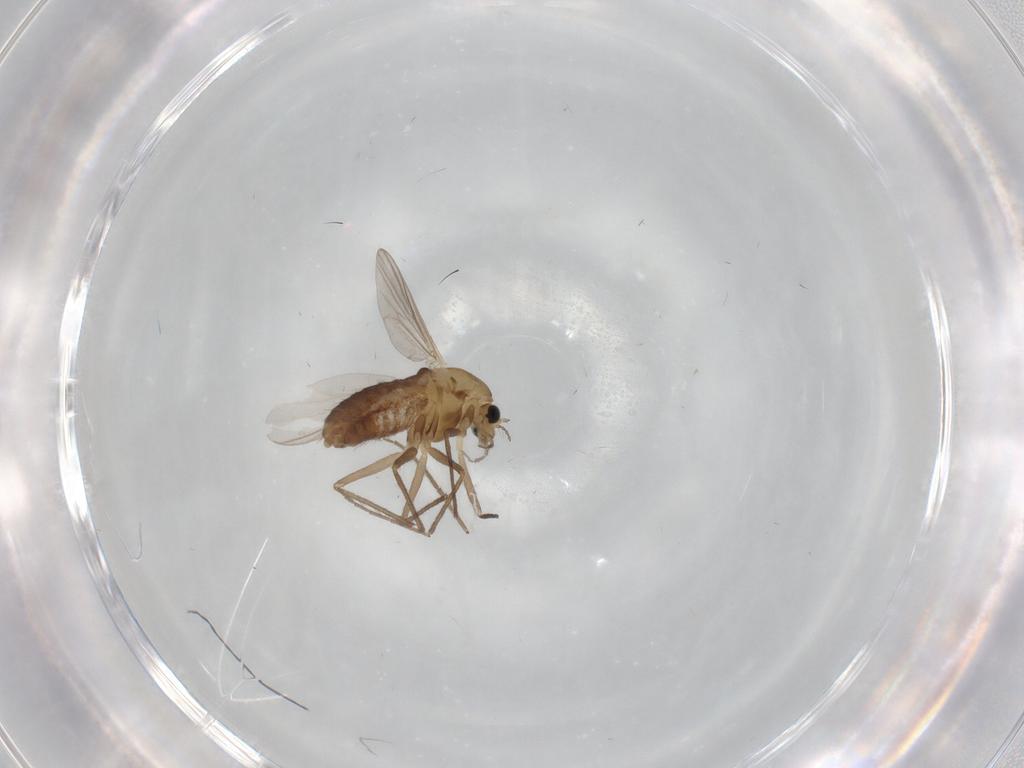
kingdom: Animalia
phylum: Arthropoda
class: Insecta
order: Diptera
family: Chironomidae
